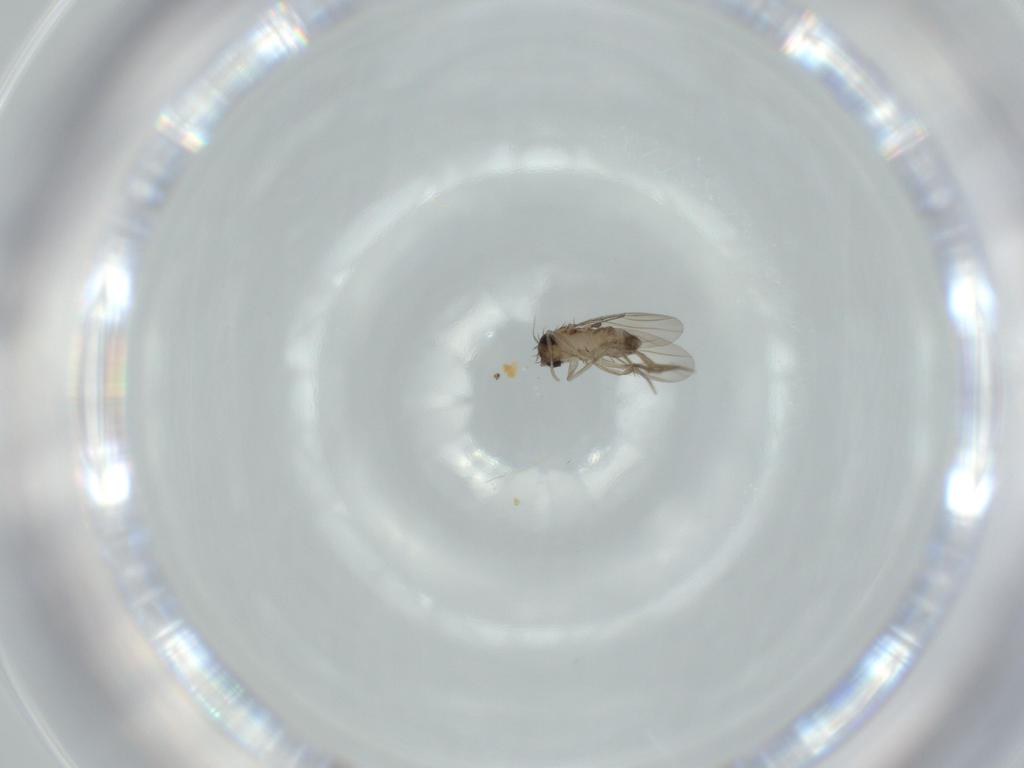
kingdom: Animalia
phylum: Arthropoda
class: Insecta
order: Diptera
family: Phoridae
